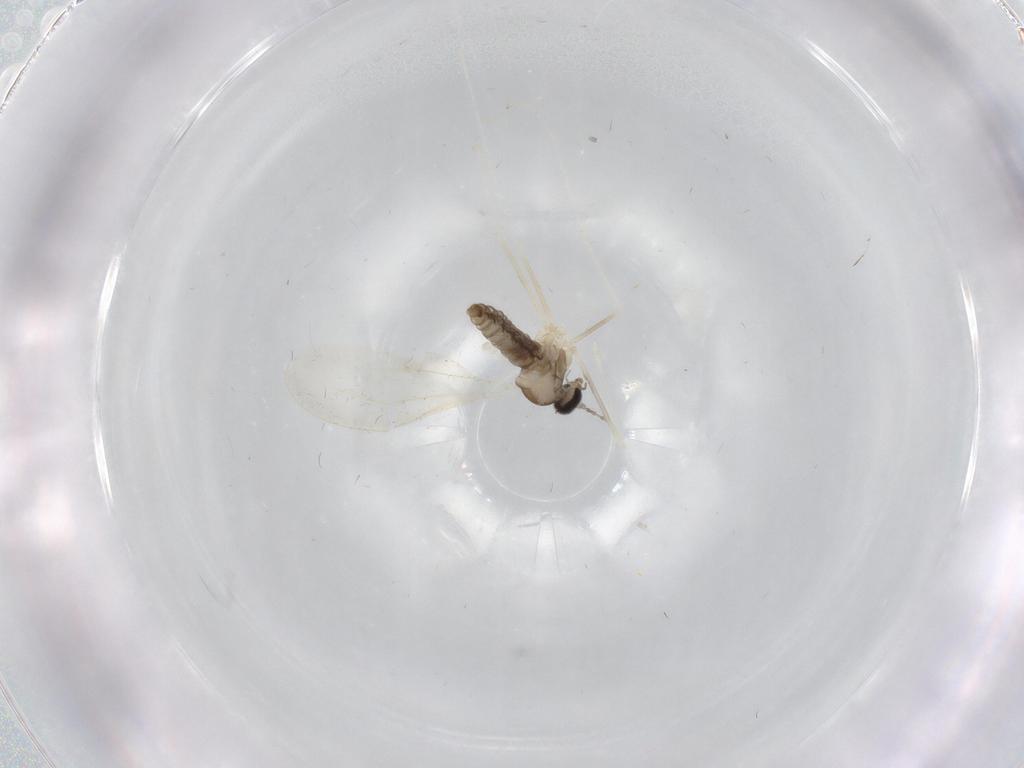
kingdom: Animalia
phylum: Arthropoda
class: Insecta
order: Diptera
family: Cecidomyiidae
